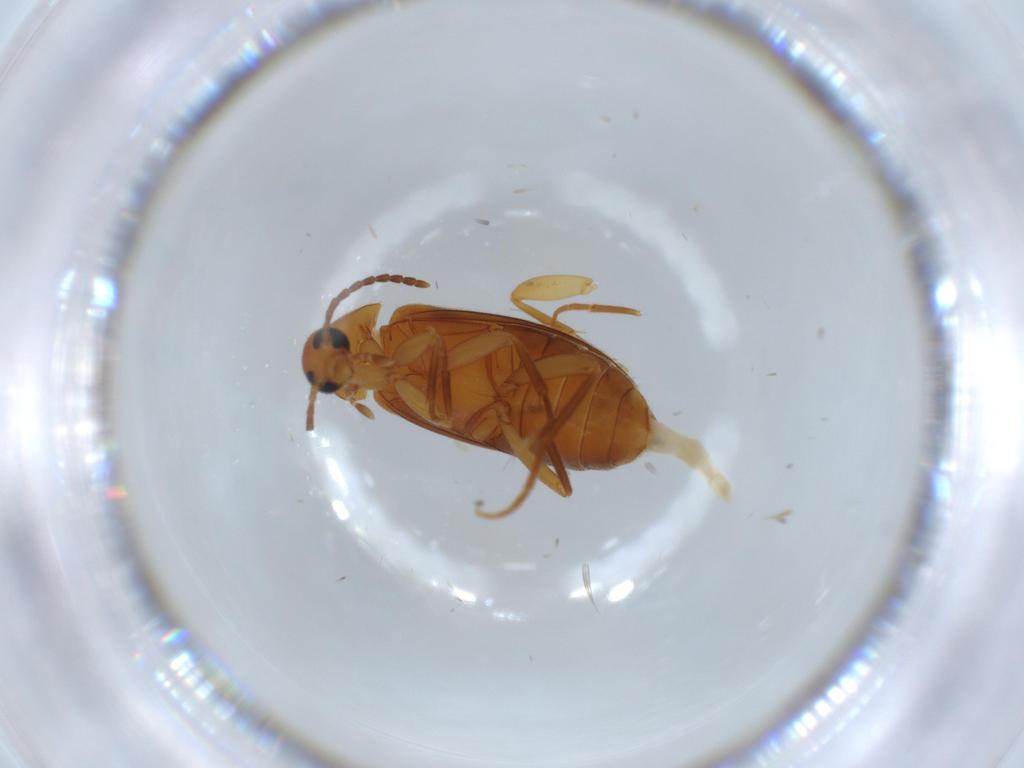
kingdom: Animalia
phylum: Arthropoda
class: Insecta
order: Coleoptera
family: Scraptiidae
